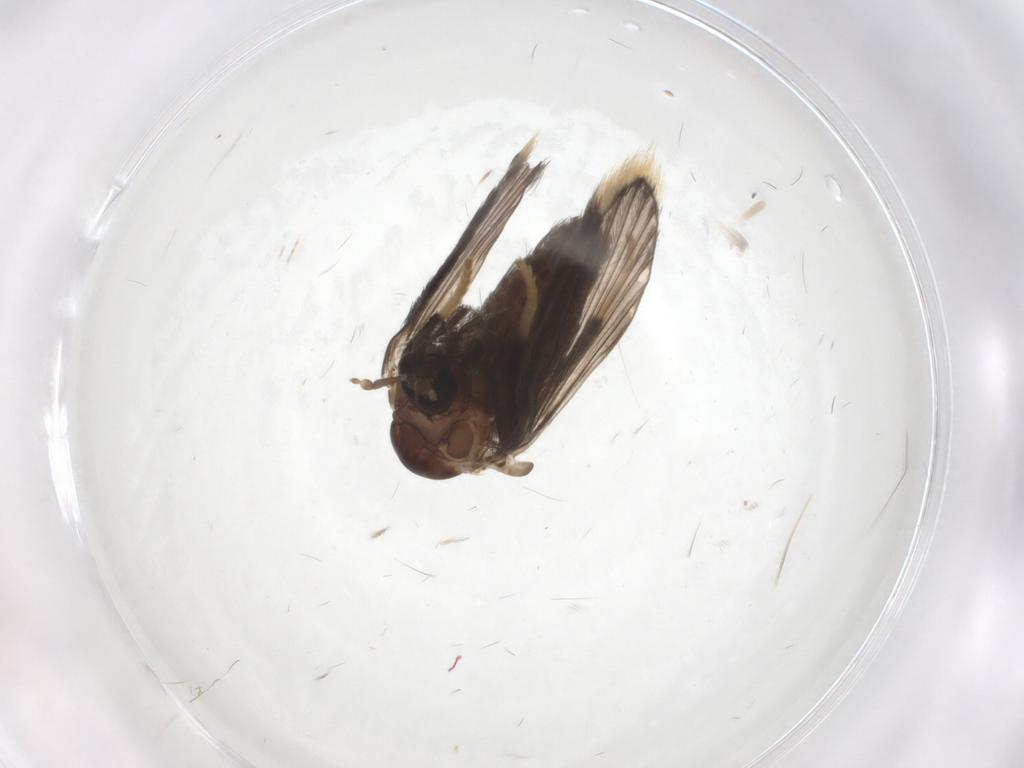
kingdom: Animalia
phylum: Arthropoda
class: Insecta
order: Diptera
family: Psychodidae
